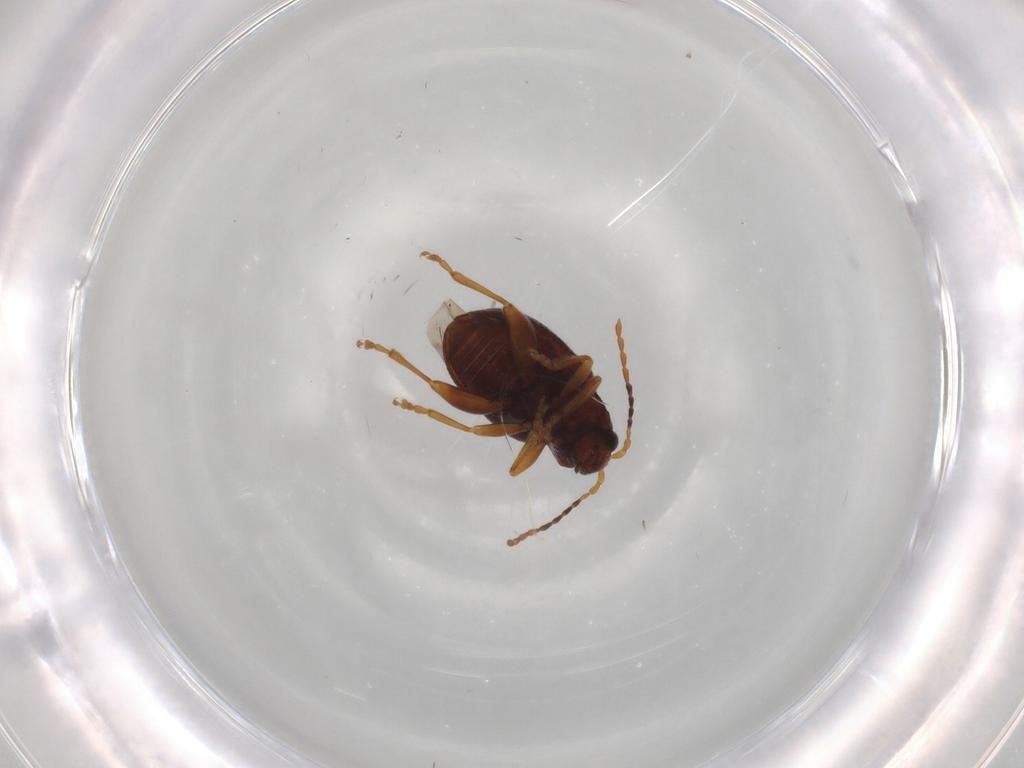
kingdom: Animalia
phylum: Arthropoda
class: Insecta
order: Coleoptera
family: Chrysomelidae
